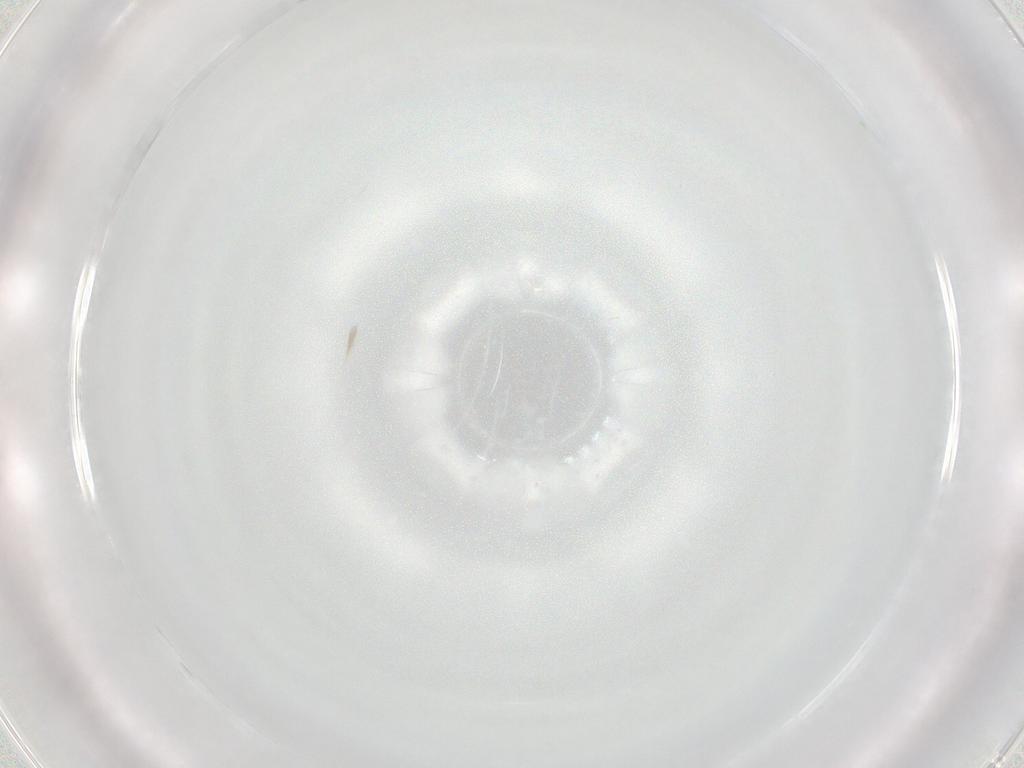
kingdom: Animalia
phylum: Arthropoda
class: Collembola
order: Entomobryomorpha
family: Entomobryidae
